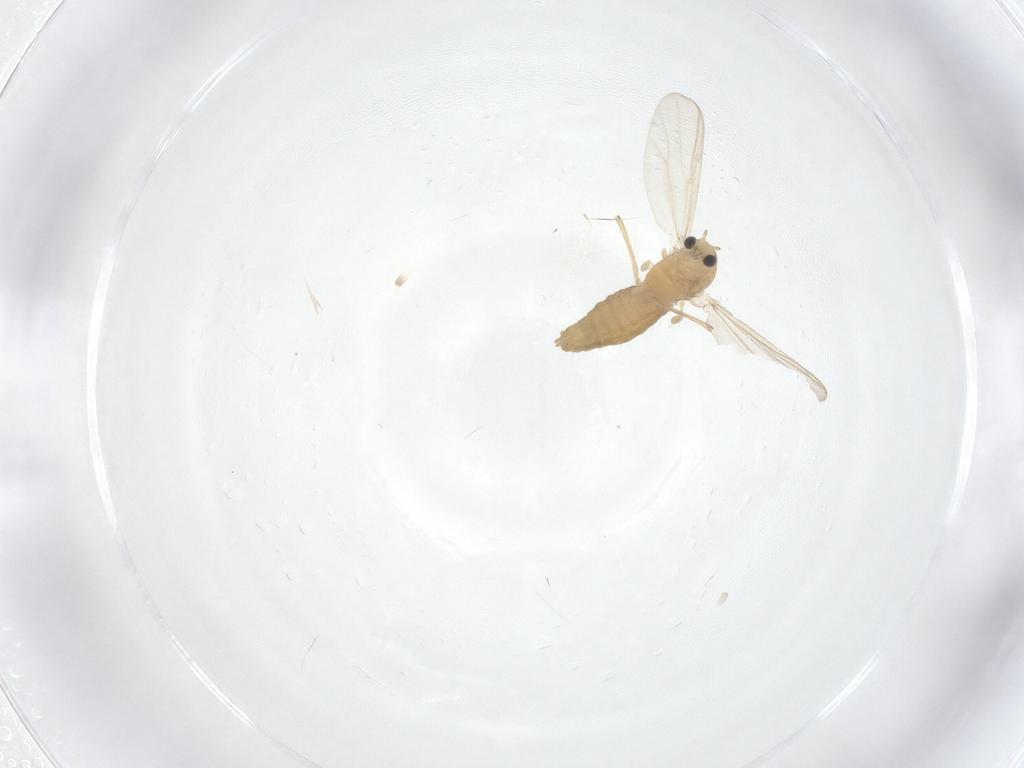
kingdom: Animalia
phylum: Arthropoda
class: Insecta
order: Diptera
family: Chironomidae
